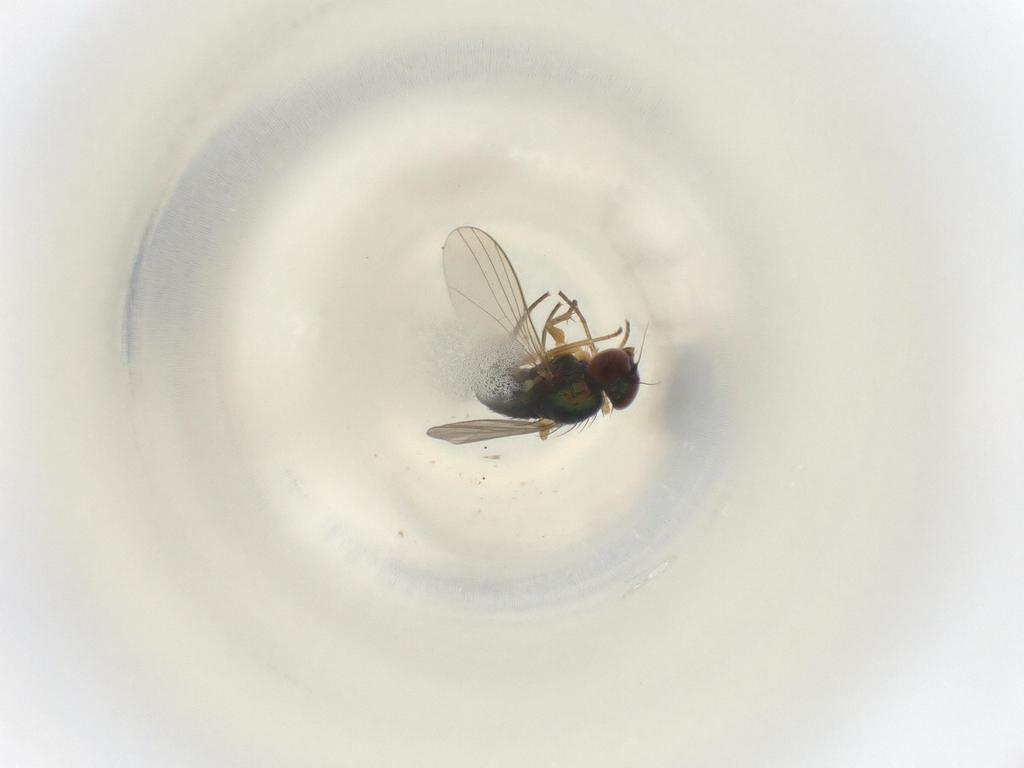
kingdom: Animalia
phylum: Arthropoda
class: Insecta
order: Diptera
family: Dolichopodidae
